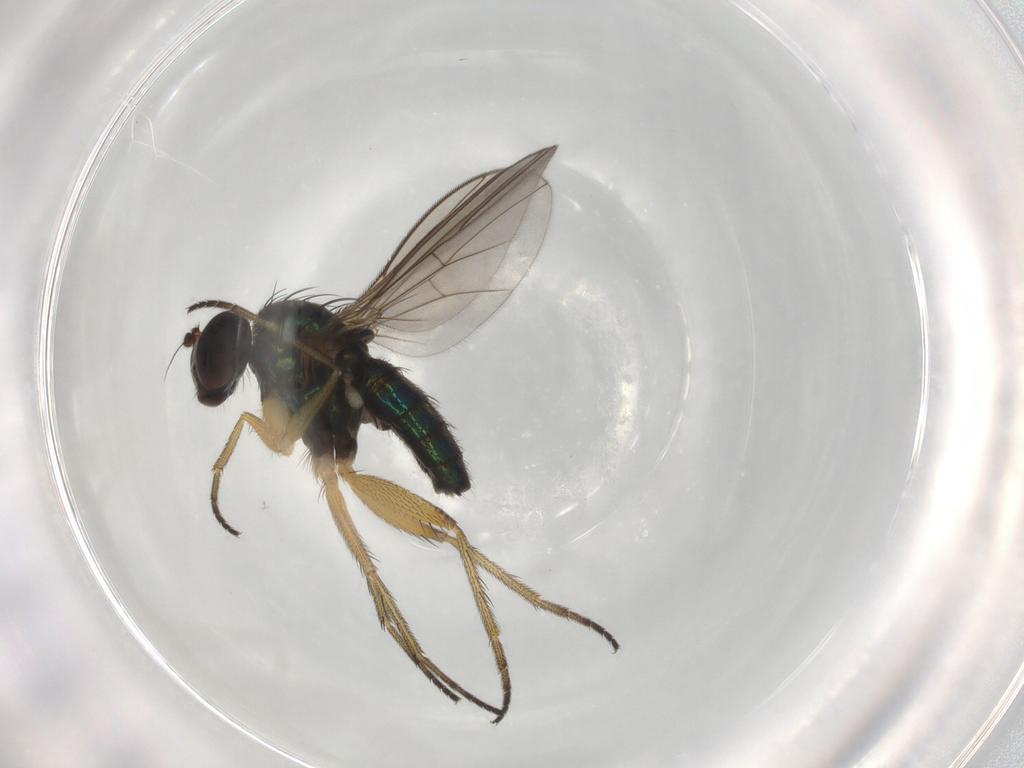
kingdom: Animalia
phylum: Arthropoda
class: Insecta
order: Diptera
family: Dolichopodidae
